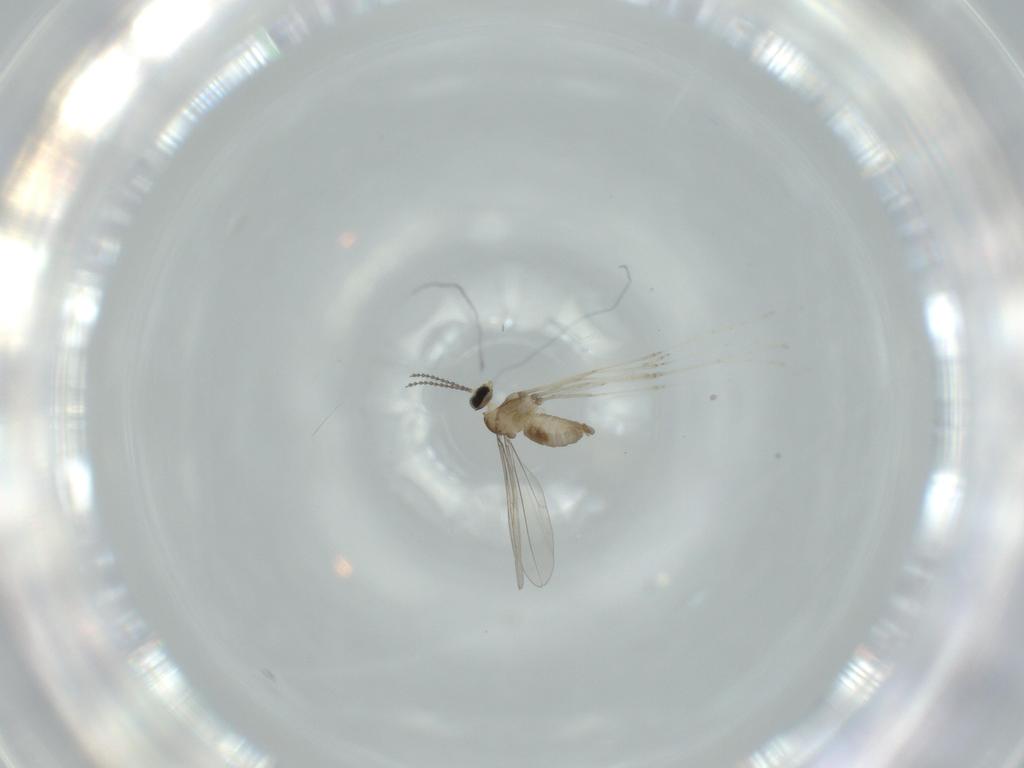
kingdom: Animalia
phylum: Arthropoda
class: Insecta
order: Diptera
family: Cecidomyiidae
